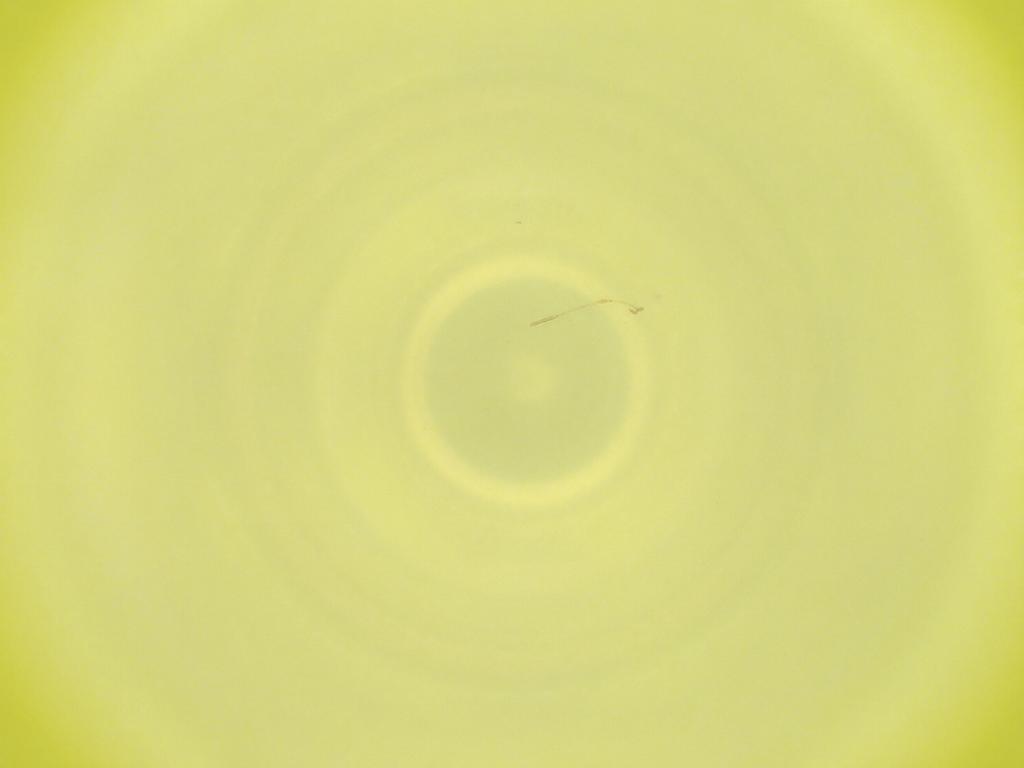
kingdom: Animalia
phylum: Arthropoda
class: Insecta
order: Diptera
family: Cecidomyiidae
